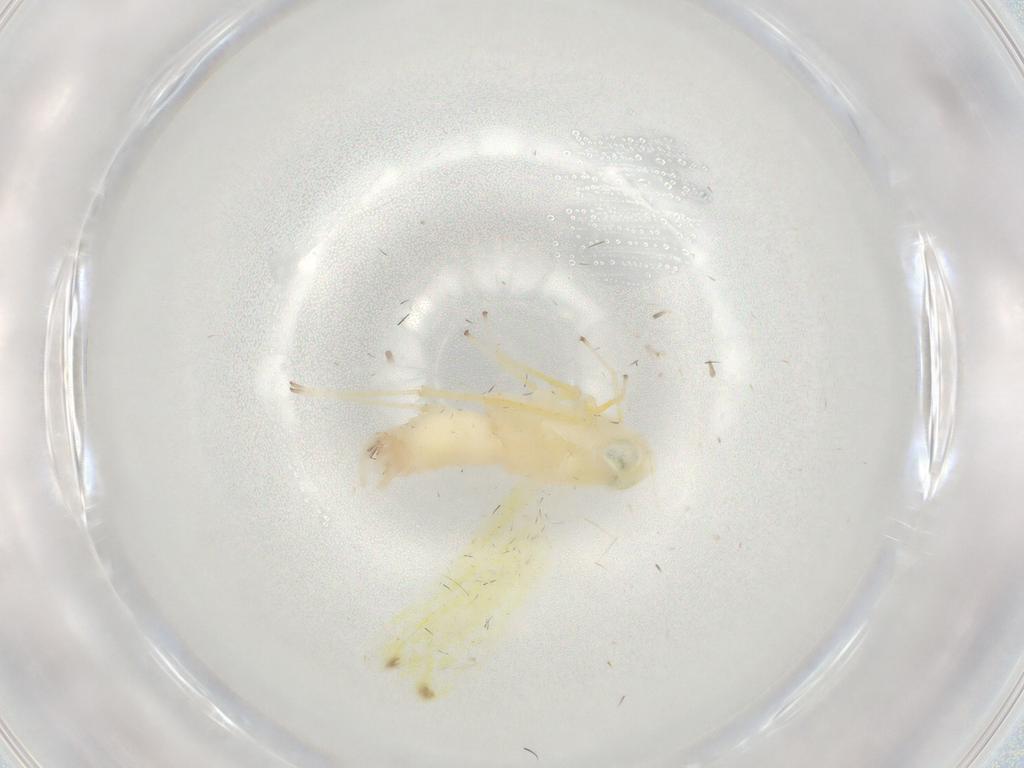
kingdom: Animalia
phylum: Arthropoda
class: Insecta
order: Hemiptera
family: Cicadellidae
